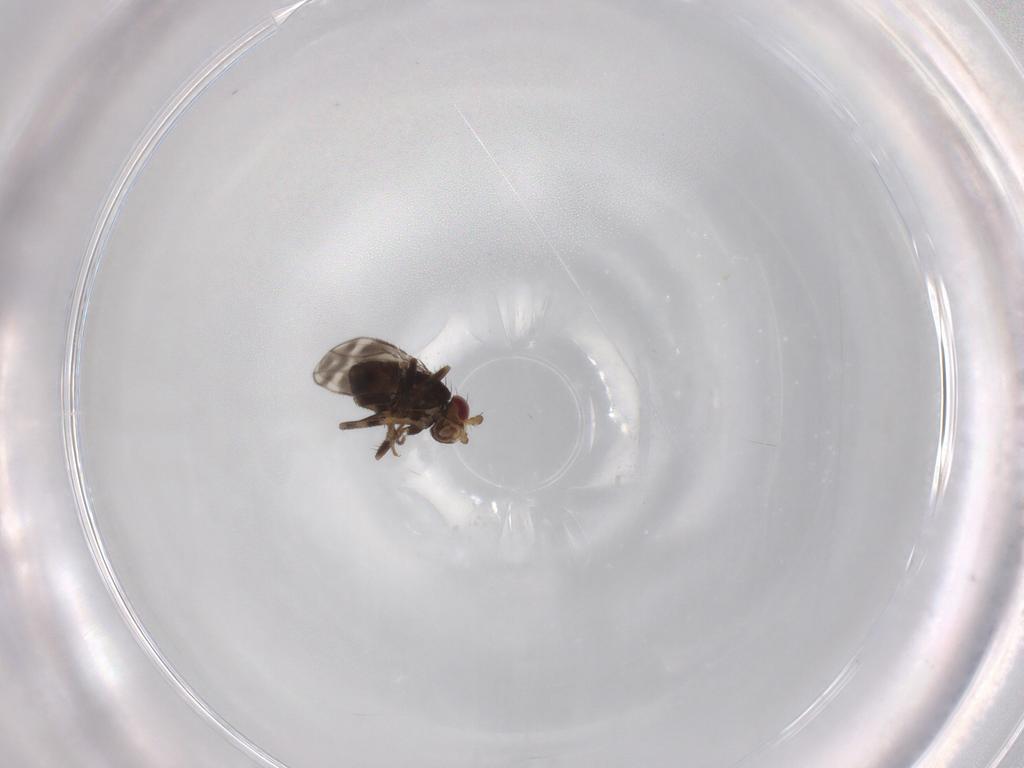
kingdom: Animalia
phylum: Arthropoda
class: Insecta
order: Diptera
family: Sphaeroceridae
